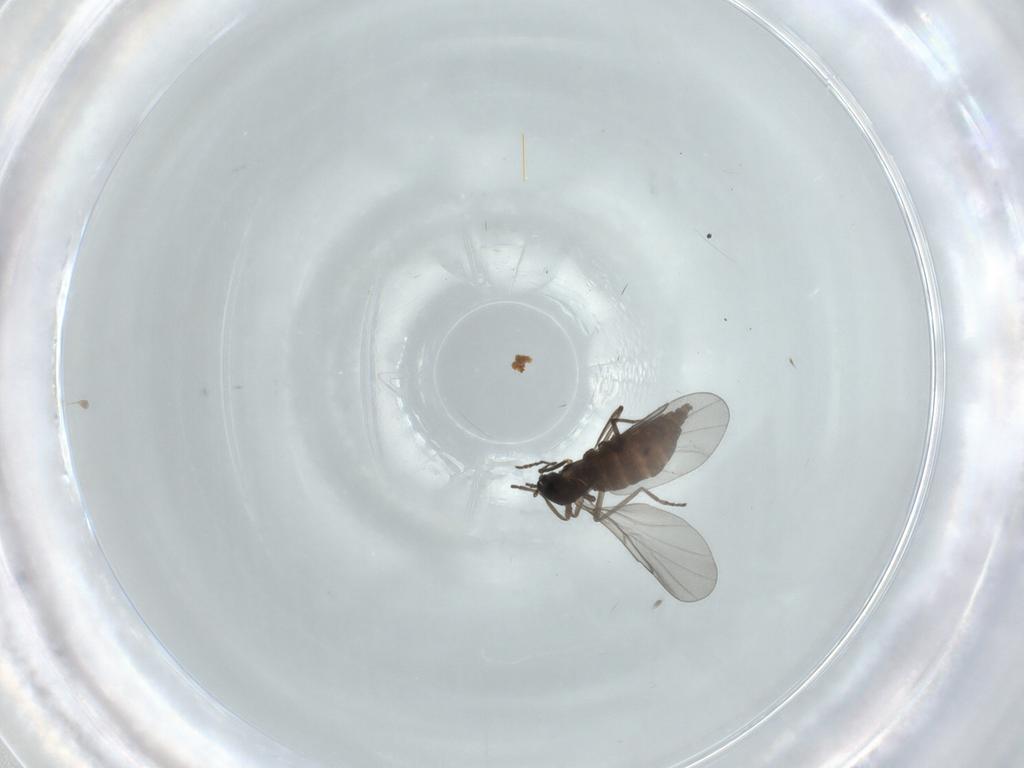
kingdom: Animalia
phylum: Arthropoda
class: Insecta
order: Diptera
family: Cecidomyiidae
